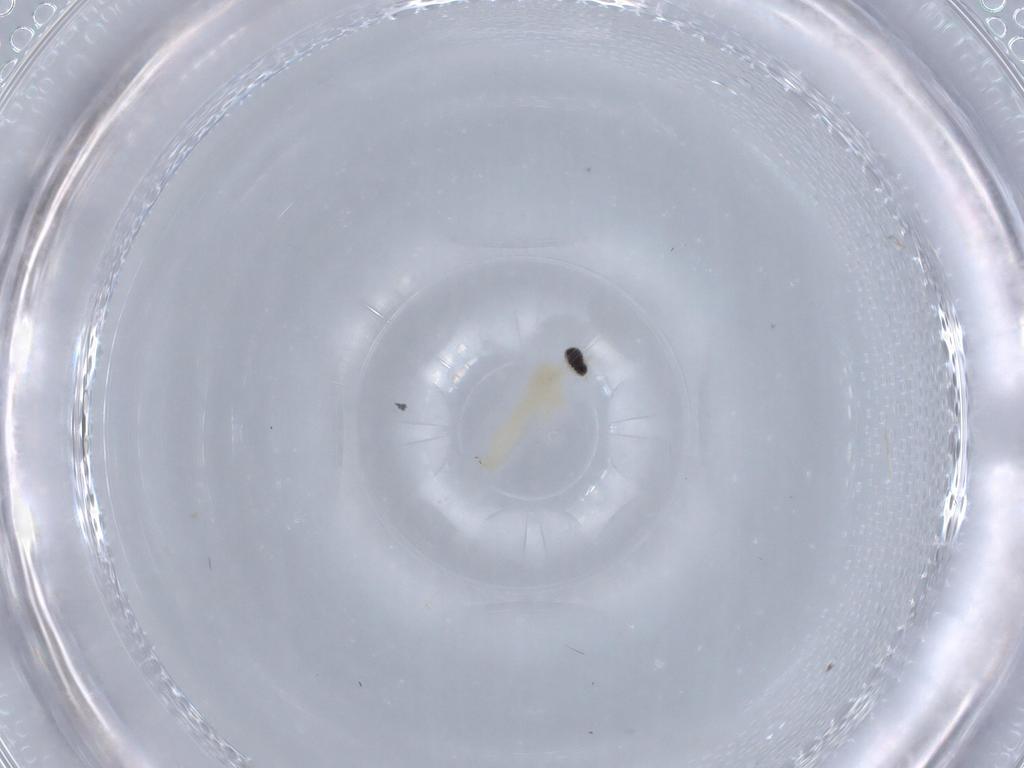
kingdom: Animalia
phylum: Arthropoda
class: Insecta
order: Diptera
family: Cecidomyiidae
